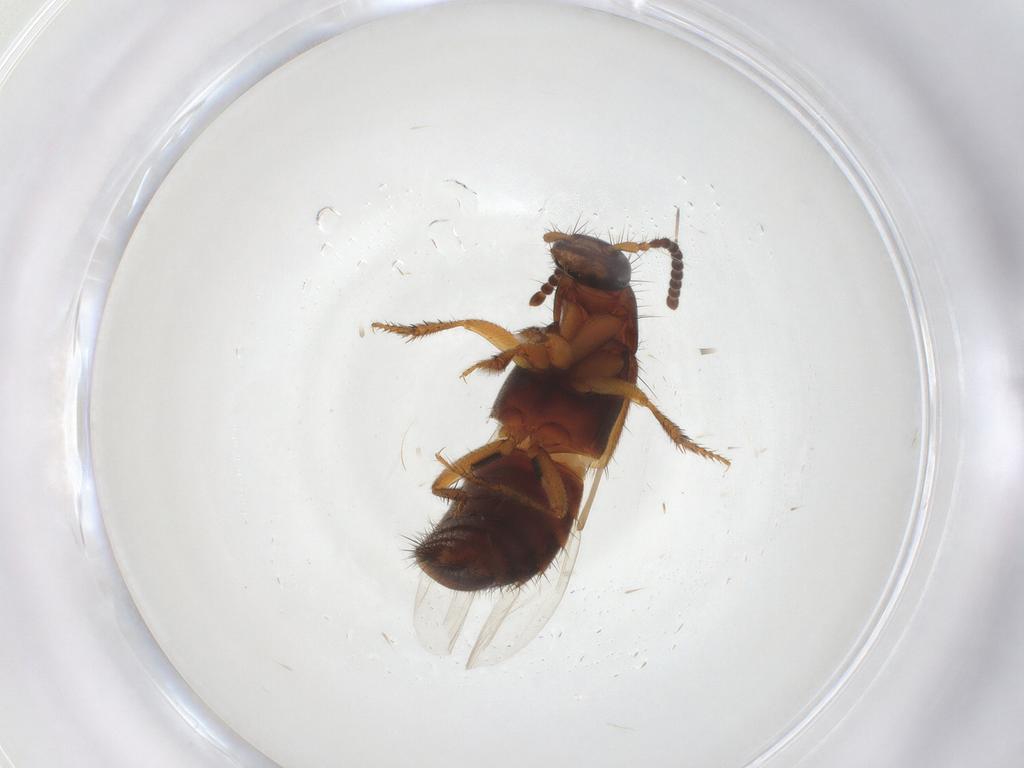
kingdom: Animalia
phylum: Arthropoda
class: Insecta
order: Coleoptera
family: Staphylinidae
